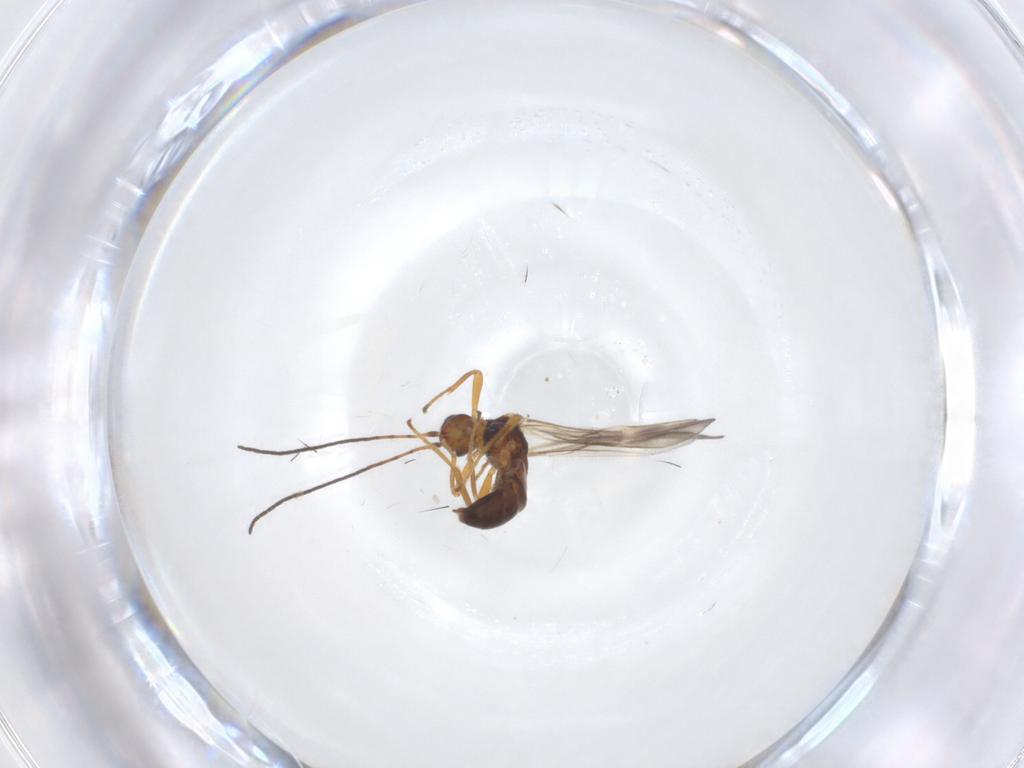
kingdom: Animalia
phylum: Arthropoda
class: Insecta
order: Hymenoptera
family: Braconidae
